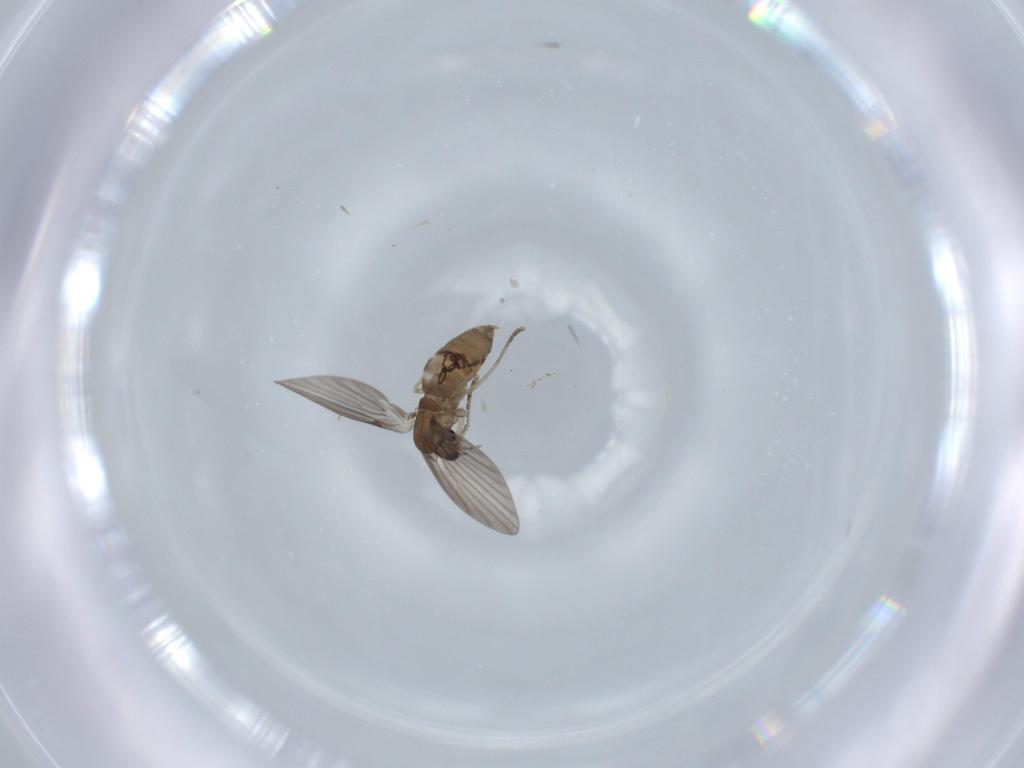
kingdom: Animalia
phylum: Arthropoda
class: Insecta
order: Diptera
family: Psychodidae
